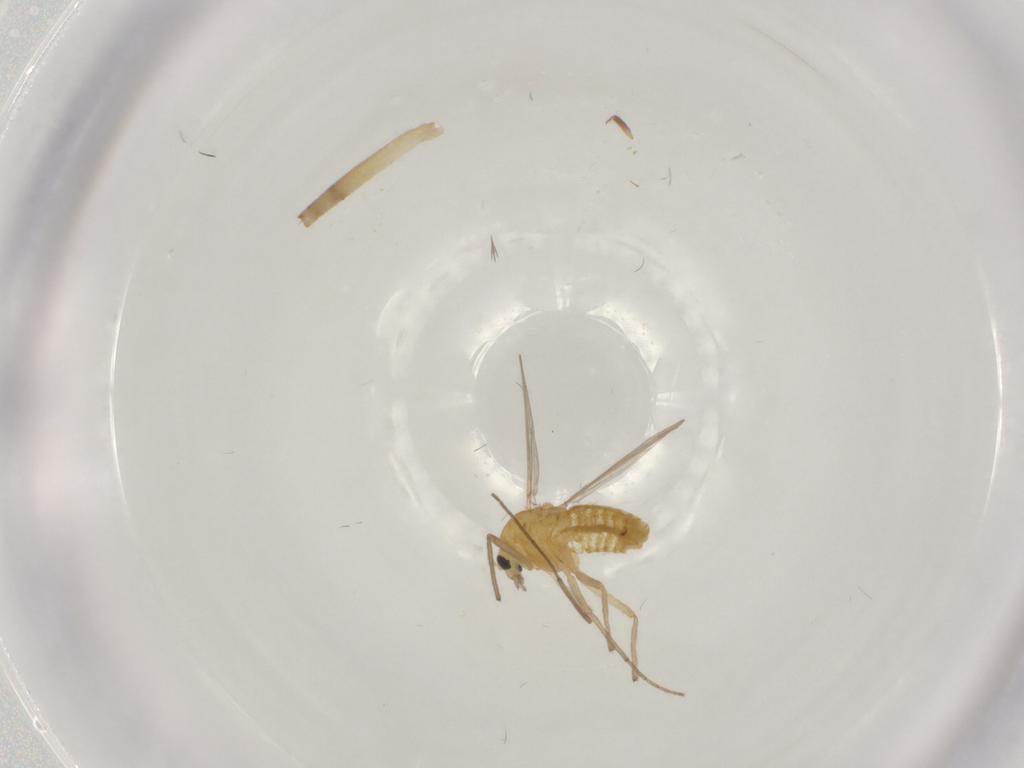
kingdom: Animalia
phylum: Arthropoda
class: Insecta
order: Diptera
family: Chironomidae
